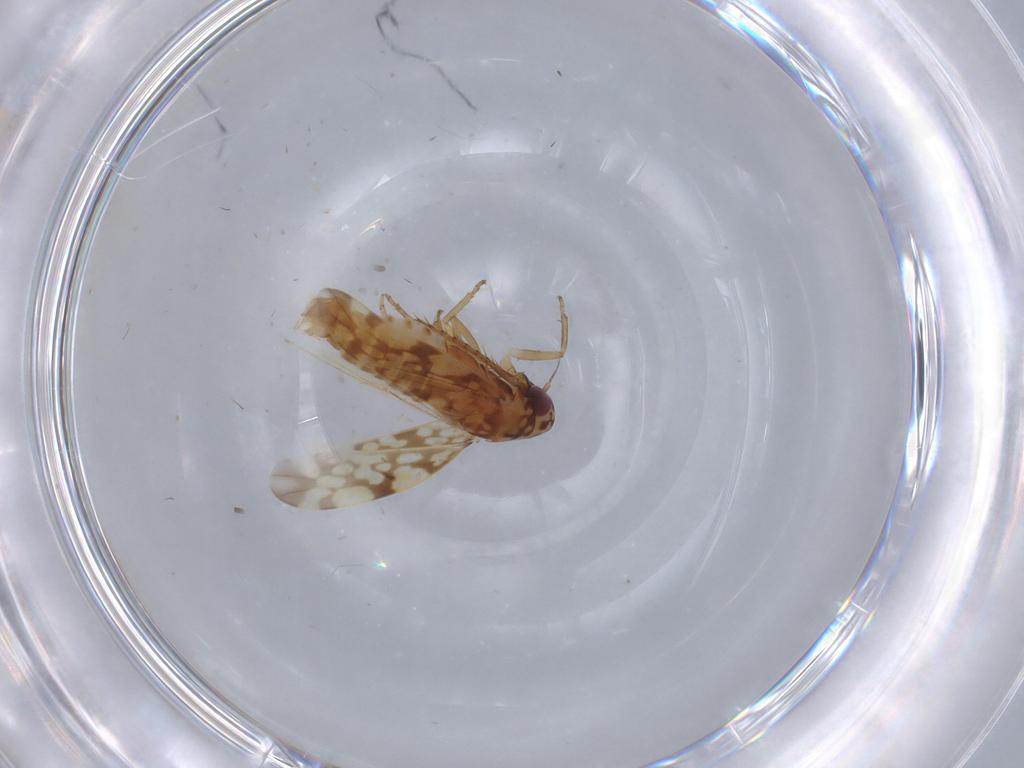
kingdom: Animalia
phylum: Arthropoda
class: Insecta
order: Hemiptera
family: Cicadellidae
